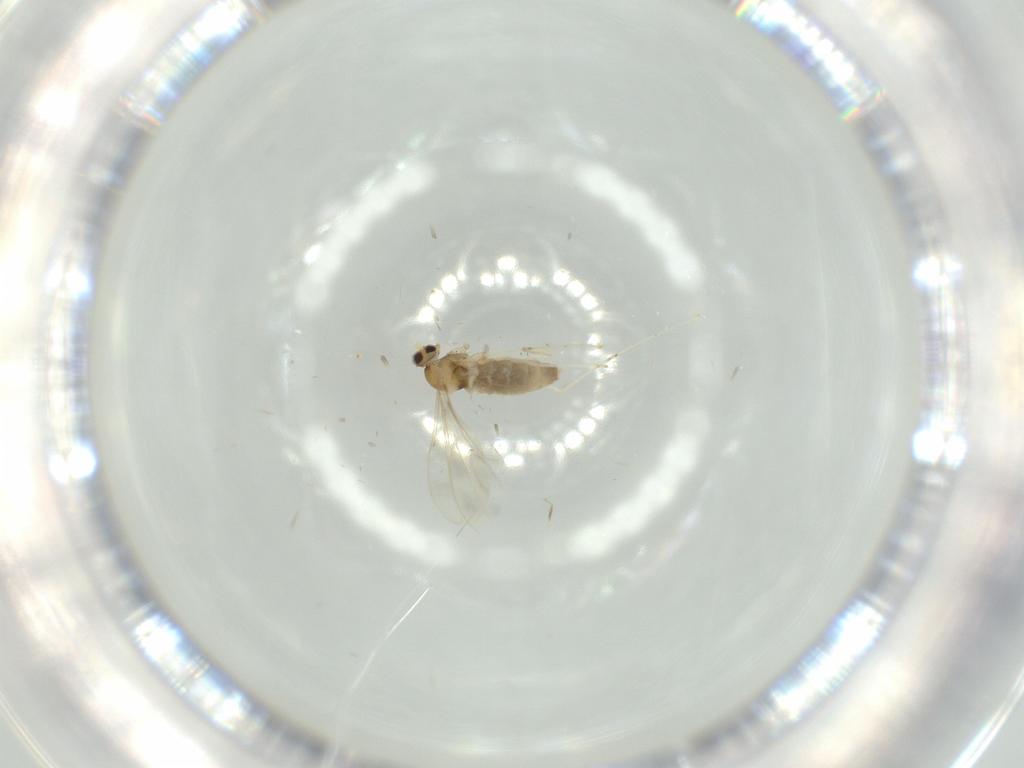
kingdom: Animalia
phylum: Arthropoda
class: Insecta
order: Diptera
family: Cecidomyiidae
